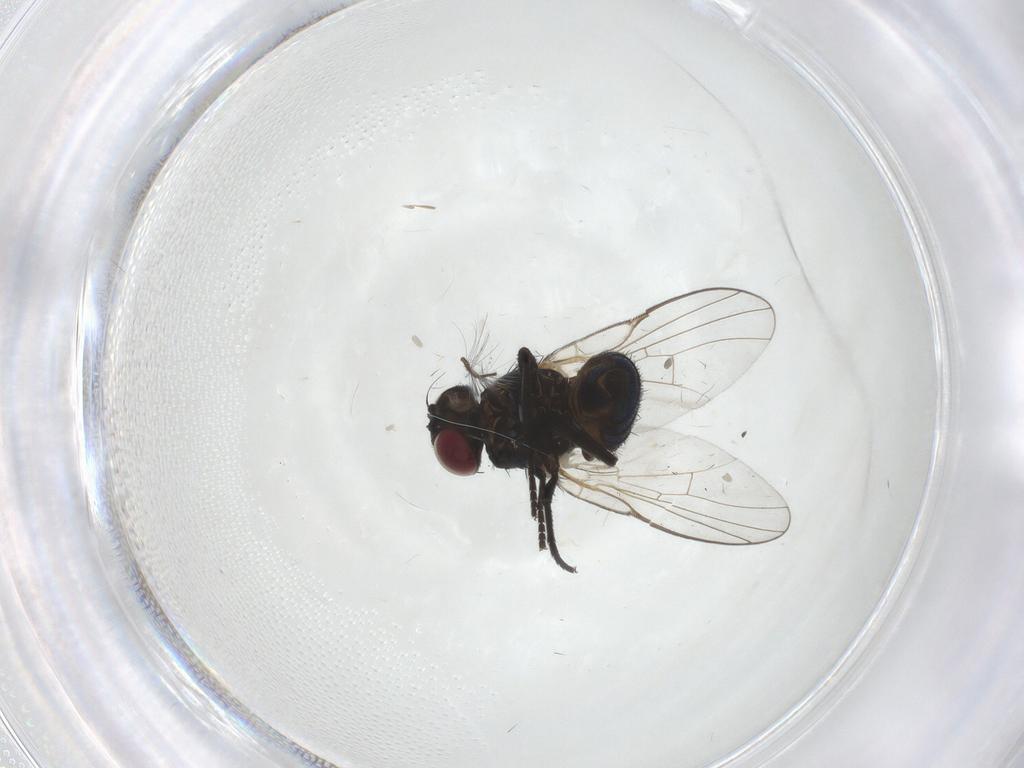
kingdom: Animalia
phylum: Arthropoda
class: Insecta
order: Diptera
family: Agromyzidae
